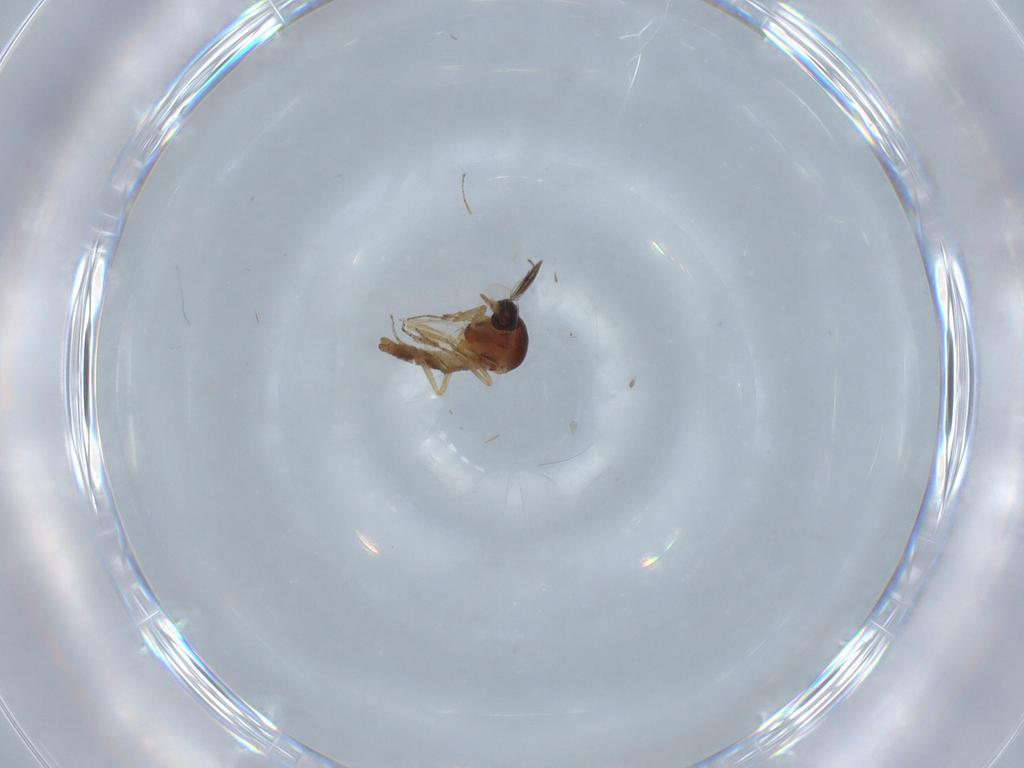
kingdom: Animalia
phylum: Arthropoda
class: Insecta
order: Diptera
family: Ceratopogonidae
